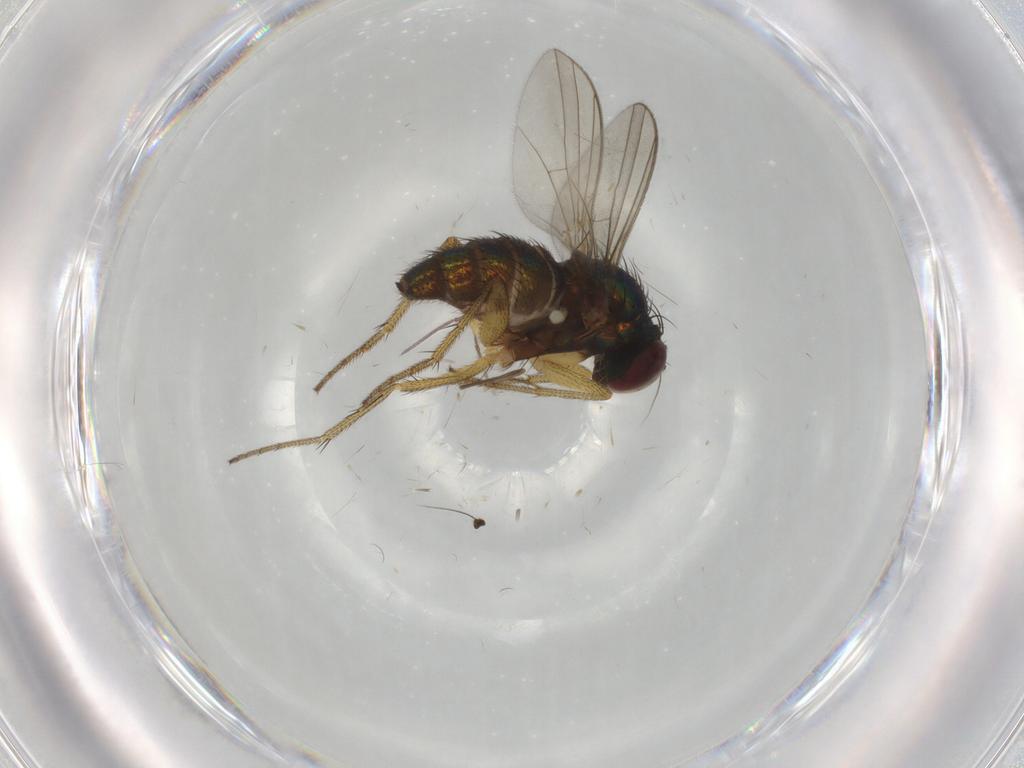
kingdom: Animalia
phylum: Arthropoda
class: Insecta
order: Diptera
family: Dolichopodidae
